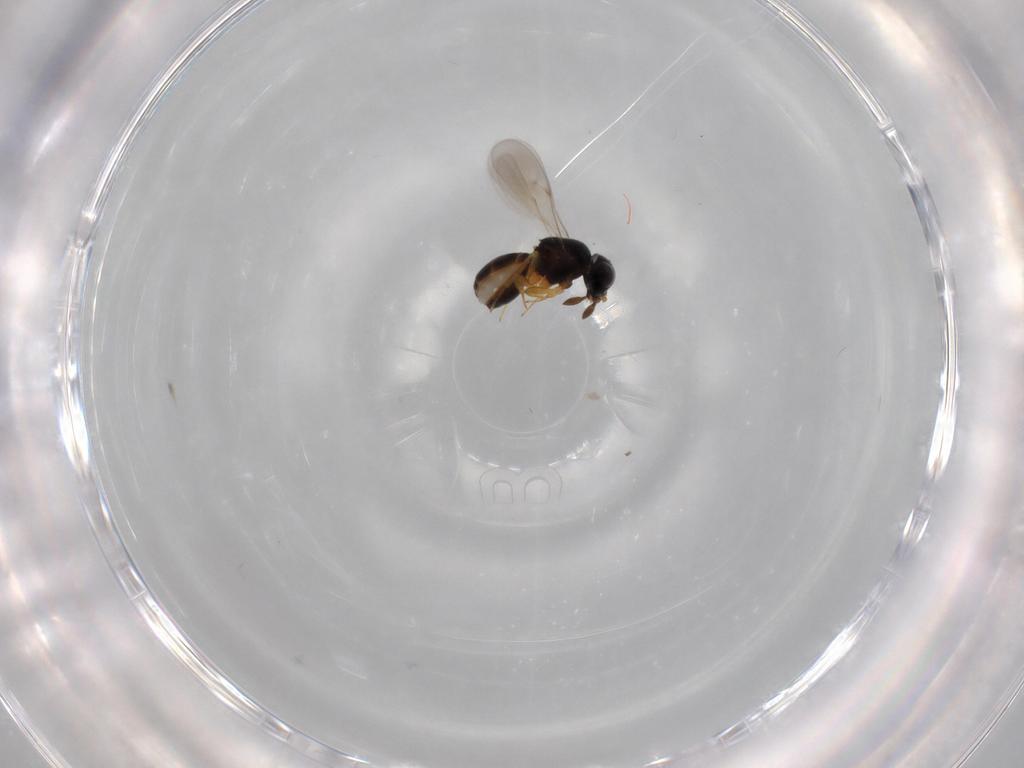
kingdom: Animalia
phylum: Arthropoda
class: Insecta
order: Hymenoptera
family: Scelionidae
